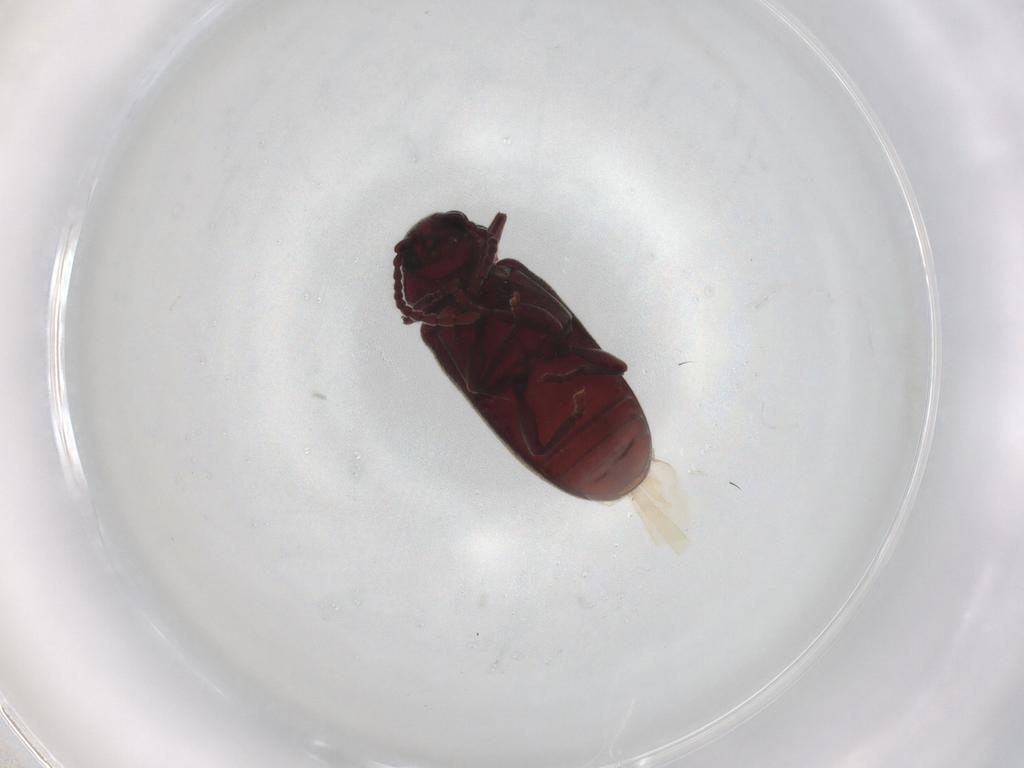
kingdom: Animalia
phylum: Arthropoda
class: Insecta
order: Coleoptera
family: Ptinidae
